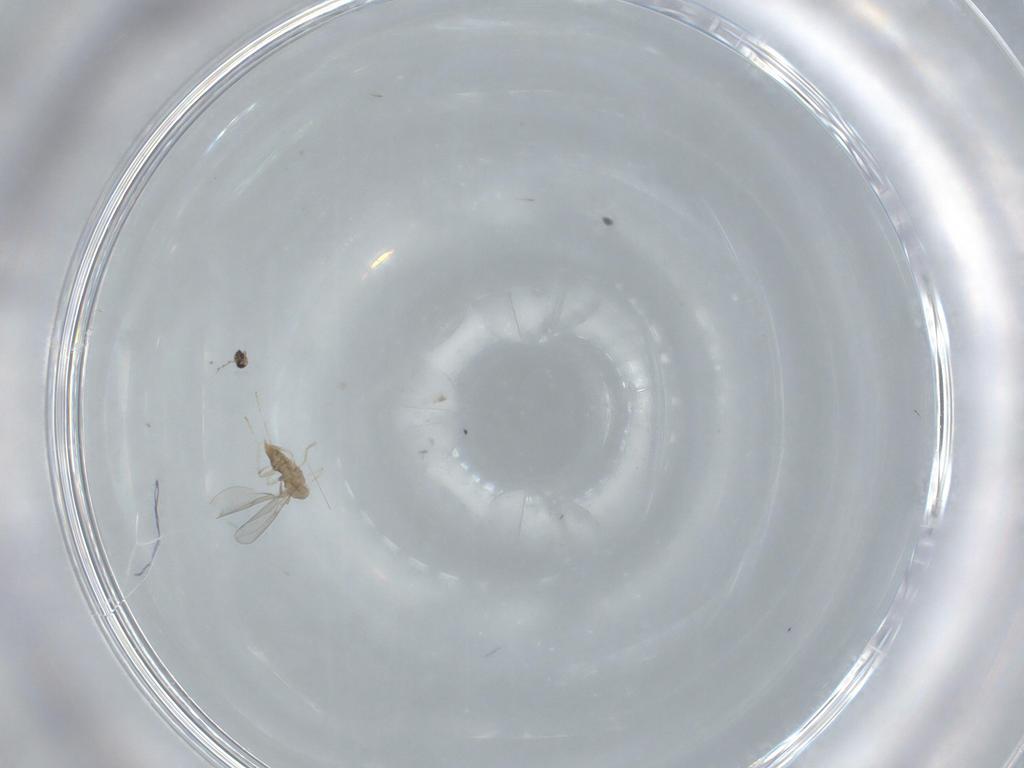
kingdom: Animalia
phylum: Arthropoda
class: Insecta
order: Diptera
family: Cecidomyiidae
